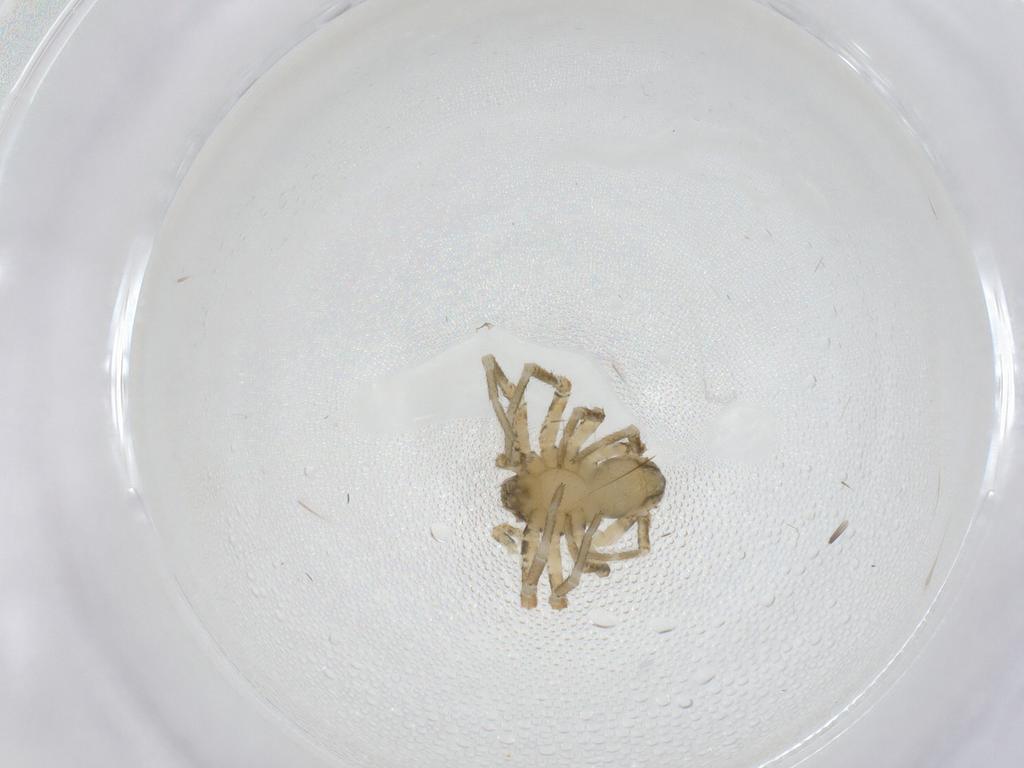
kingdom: Animalia
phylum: Arthropoda
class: Arachnida
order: Araneae
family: Thomisidae
